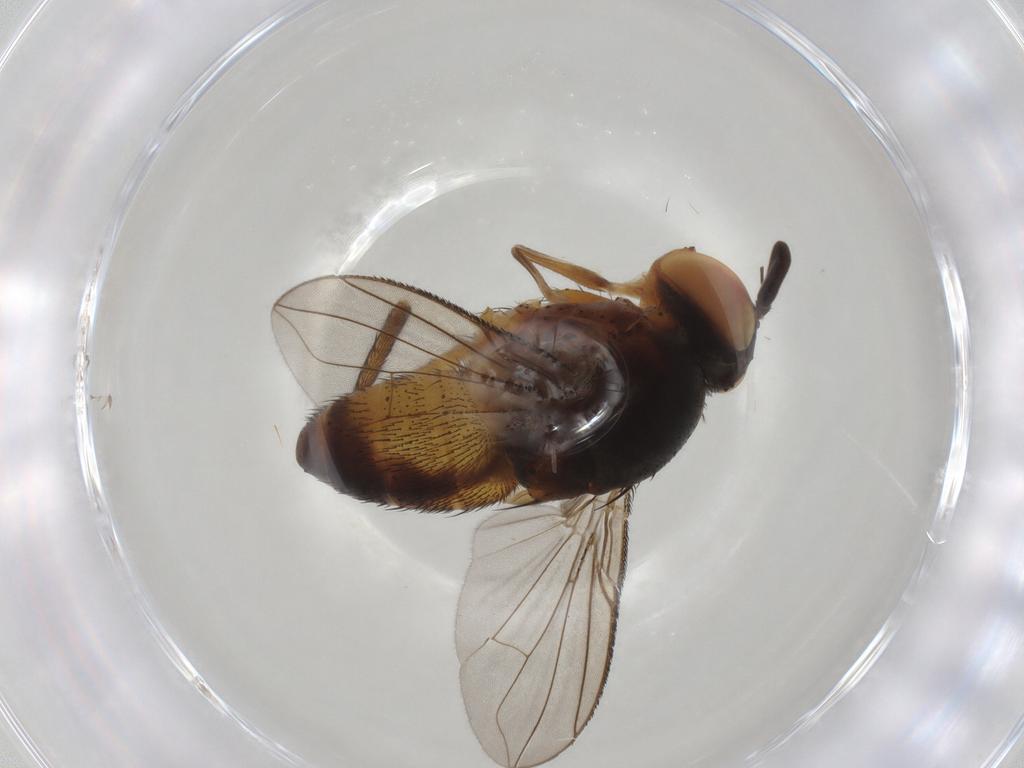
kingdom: Animalia
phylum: Arthropoda
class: Insecta
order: Diptera
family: Tachinidae
